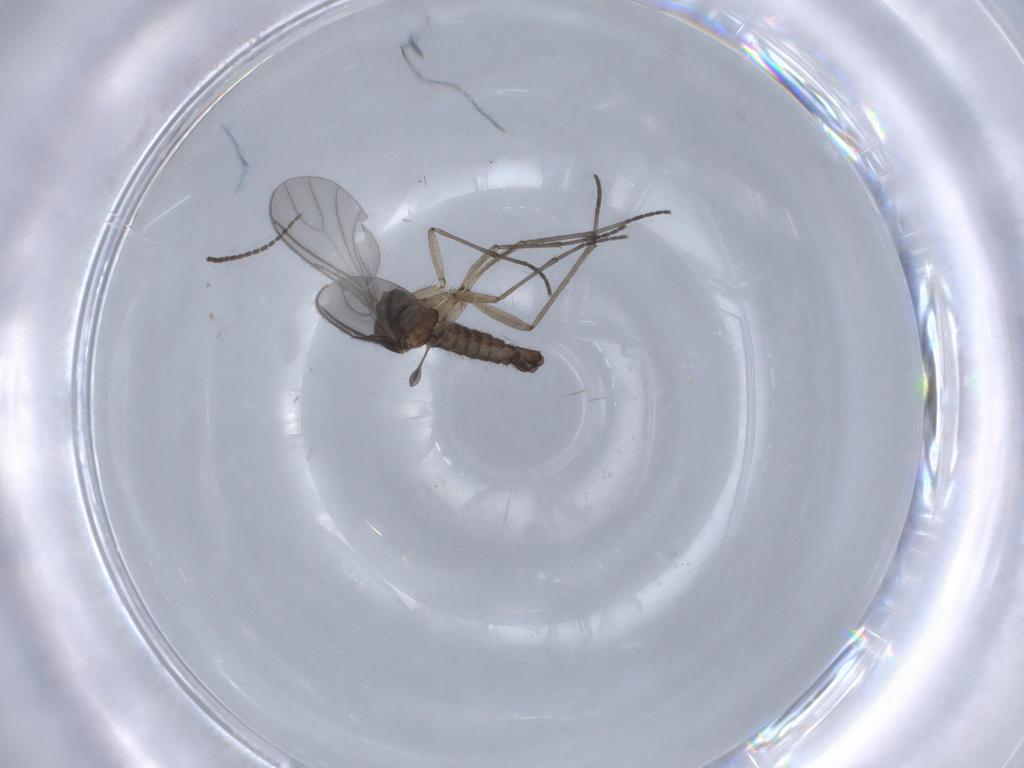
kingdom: Animalia
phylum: Arthropoda
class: Insecta
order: Diptera
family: Sciaridae
